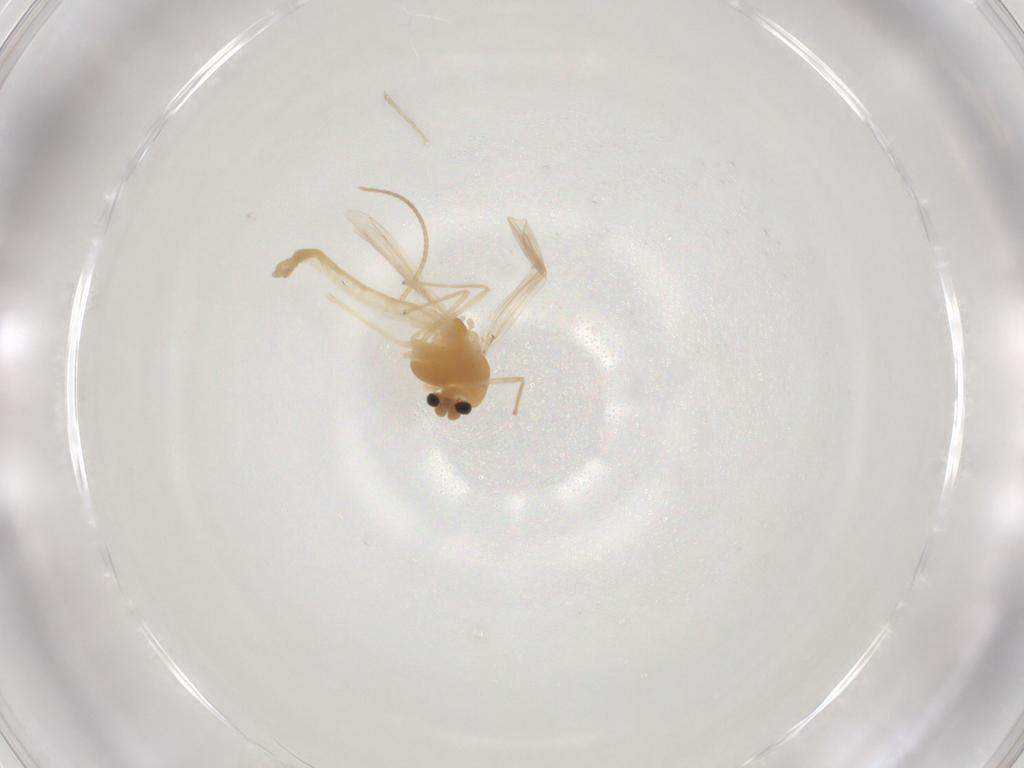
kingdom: Animalia
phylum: Arthropoda
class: Insecta
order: Diptera
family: Chironomidae
